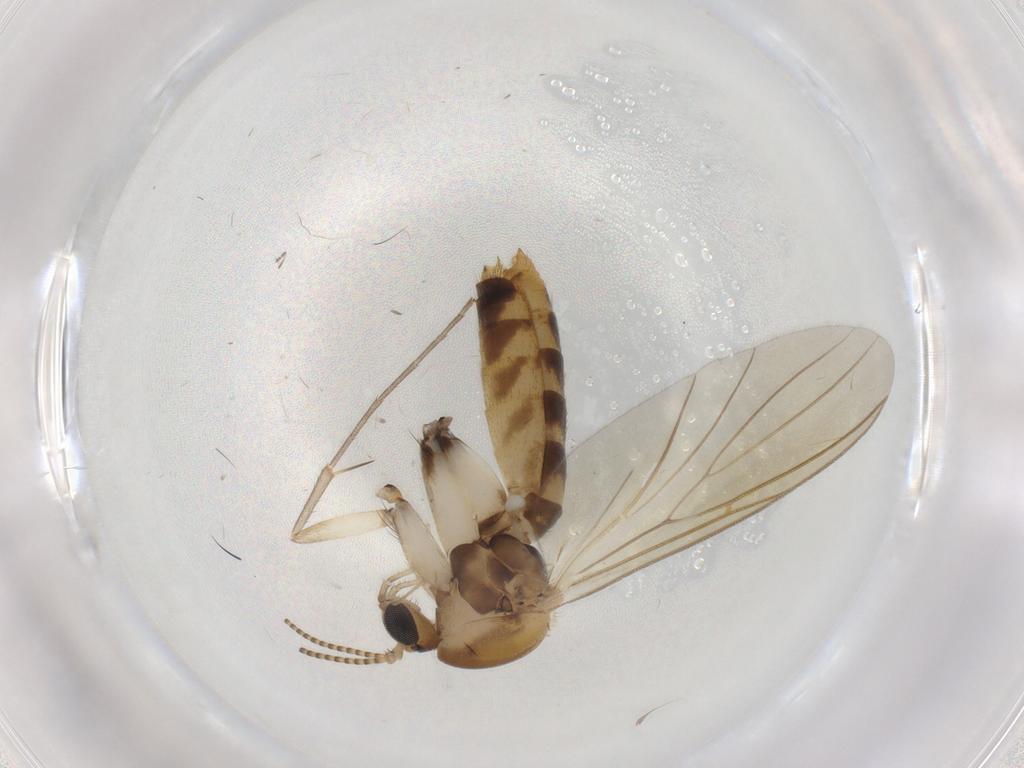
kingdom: Animalia
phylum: Arthropoda
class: Insecta
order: Diptera
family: Mycetophilidae
